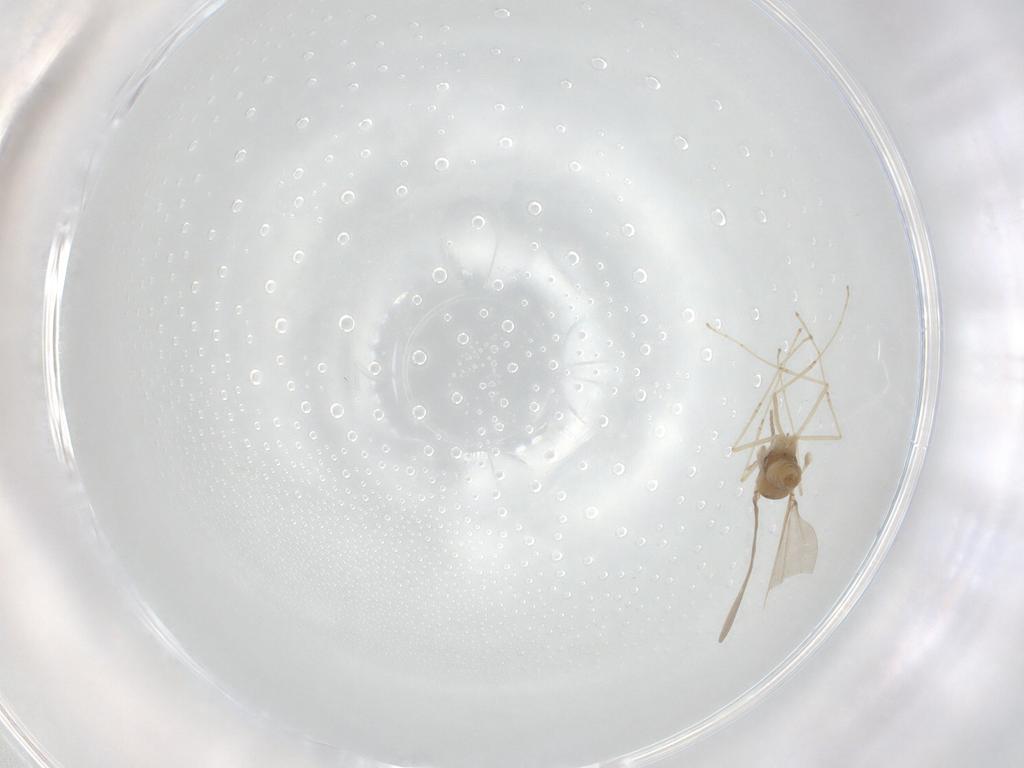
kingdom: Animalia
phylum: Arthropoda
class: Insecta
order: Diptera
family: Cecidomyiidae
